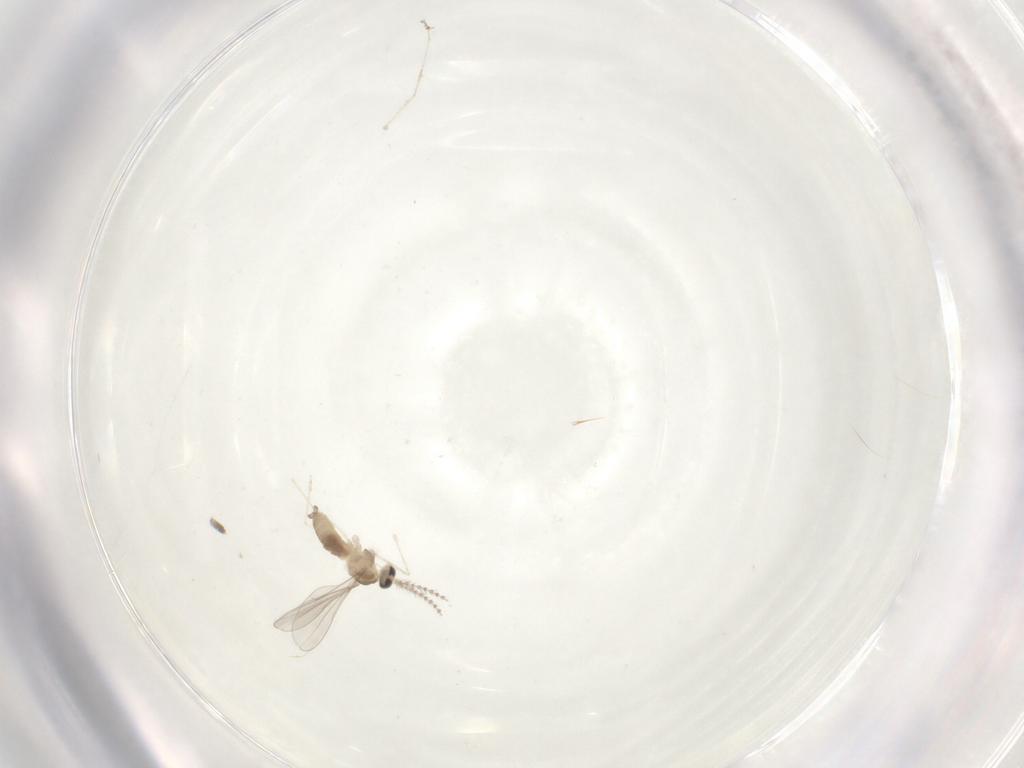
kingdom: Animalia
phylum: Arthropoda
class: Insecta
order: Diptera
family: Cecidomyiidae
